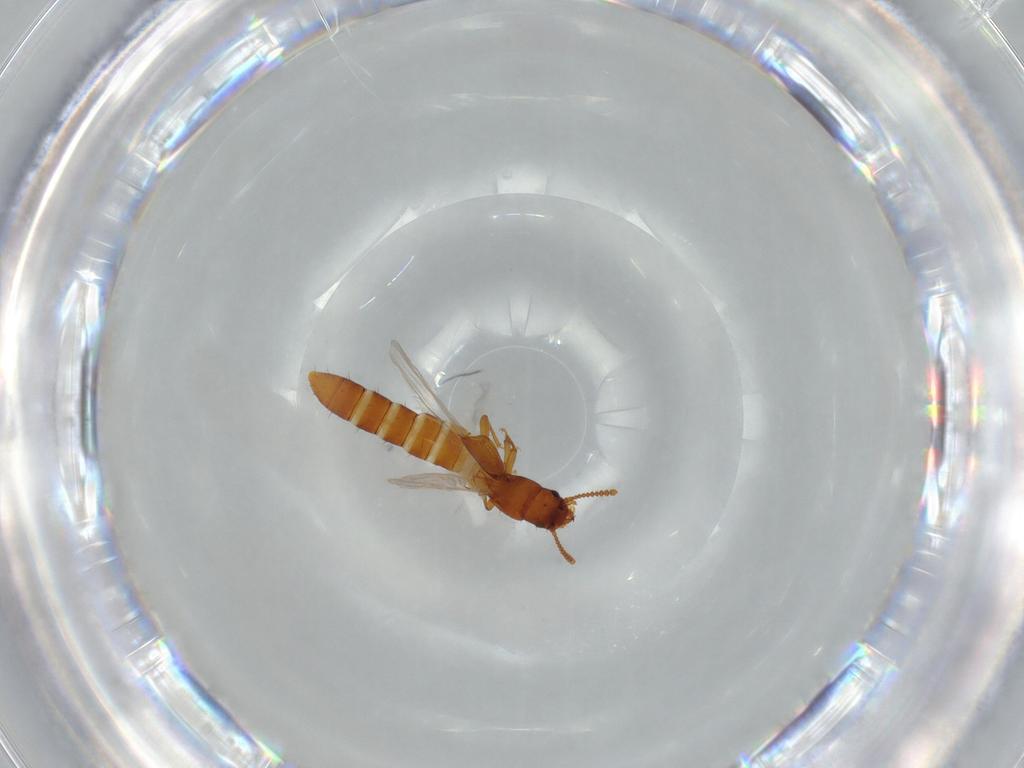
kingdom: Animalia
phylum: Arthropoda
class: Insecta
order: Coleoptera
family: Staphylinidae
